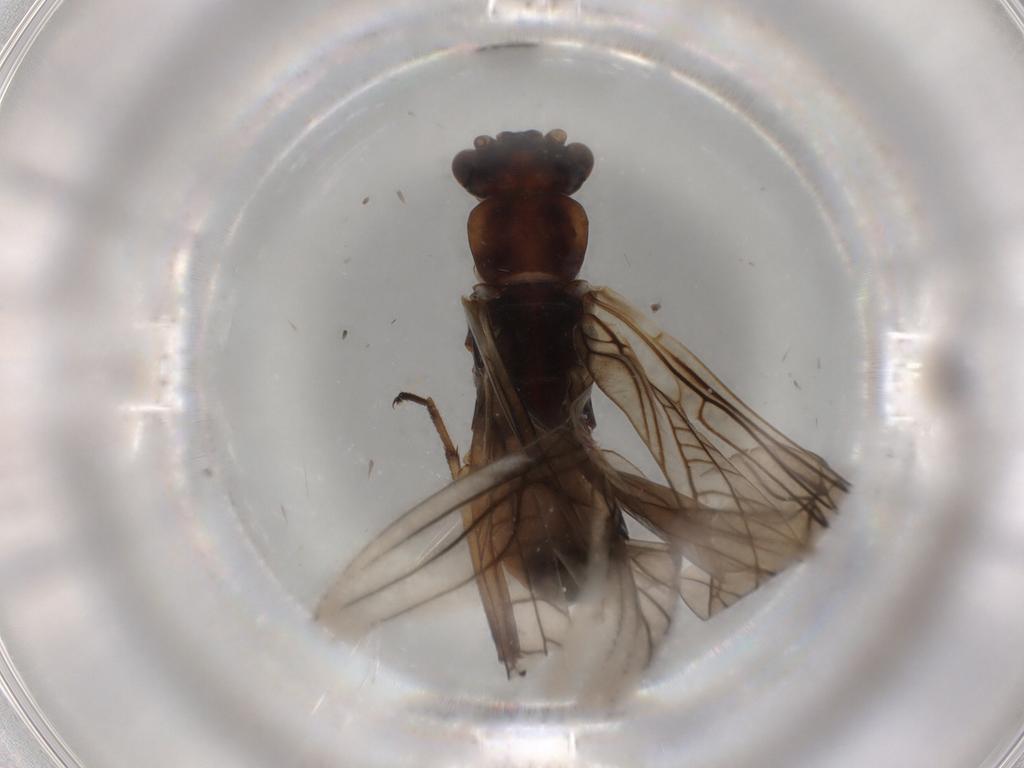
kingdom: Animalia
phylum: Arthropoda
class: Insecta
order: Plecoptera
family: Nemouridae
